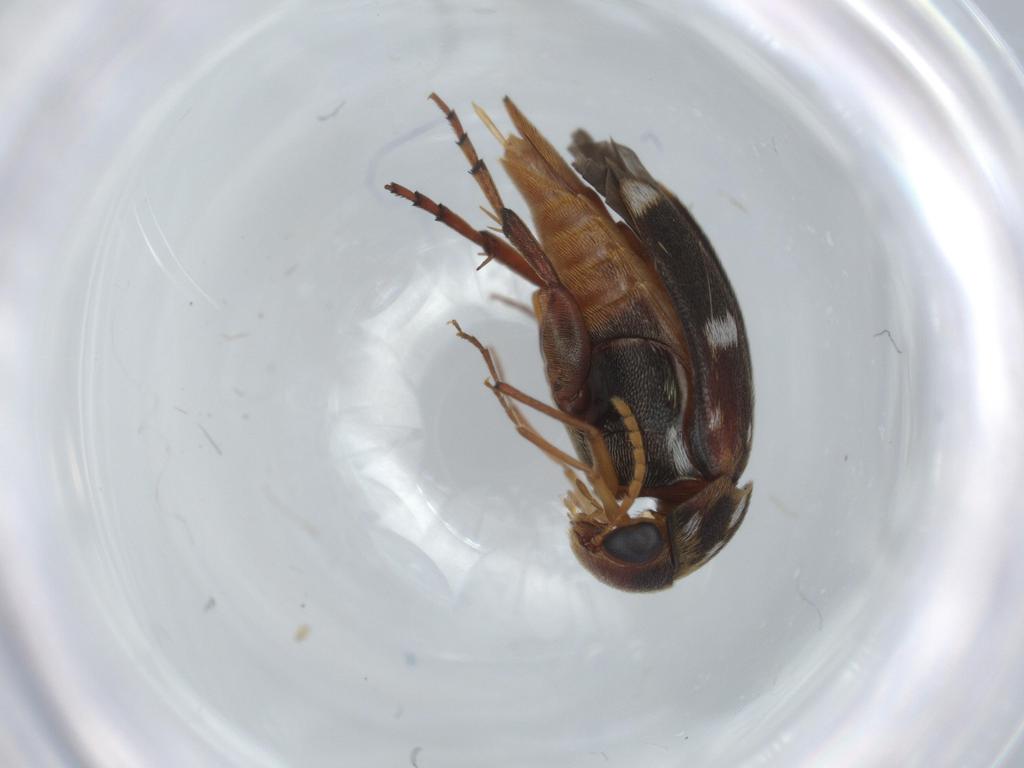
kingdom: Animalia
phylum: Arthropoda
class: Insecta
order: Coleoptera
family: Mordellidae
